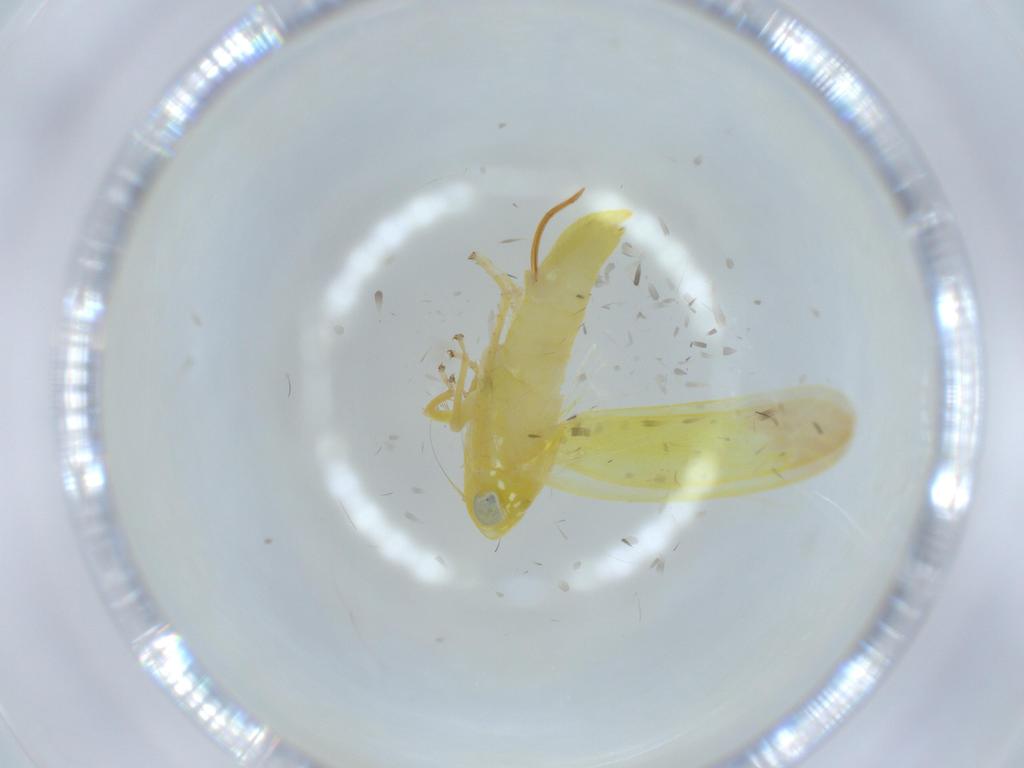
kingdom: Animalia
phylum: Arthropoda
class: Insecta
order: Hemiptera
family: Cicadellidae
